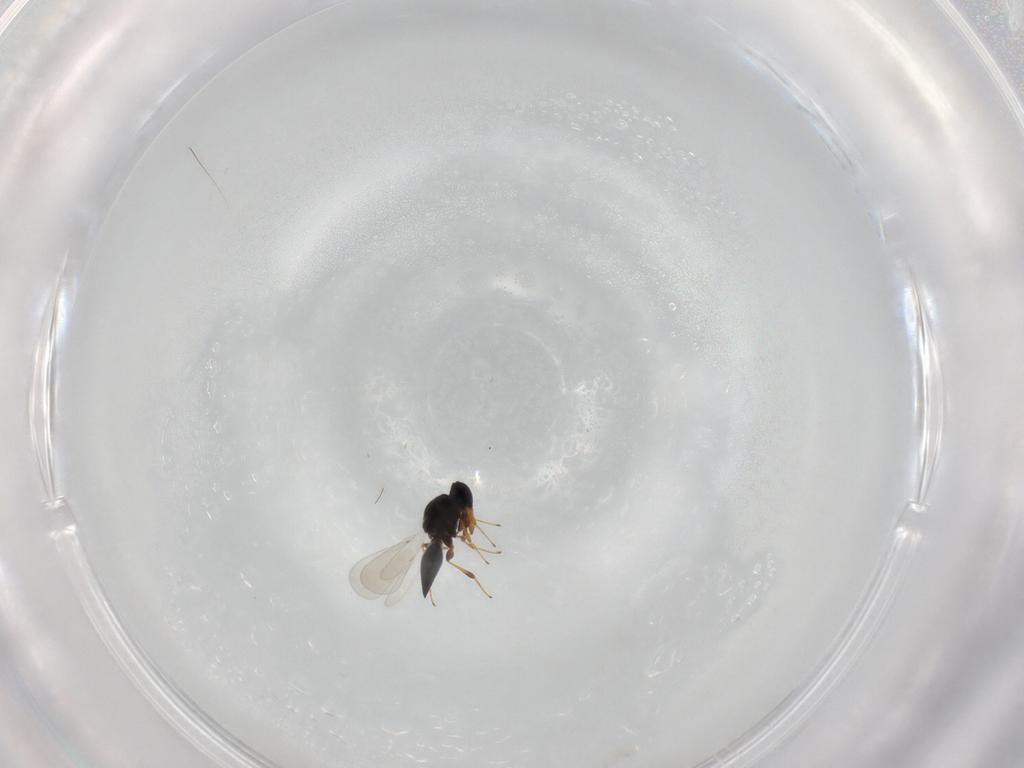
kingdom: Animalia
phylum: Arthropoda
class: Insecta
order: Hymenoptera
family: Platygastridae
